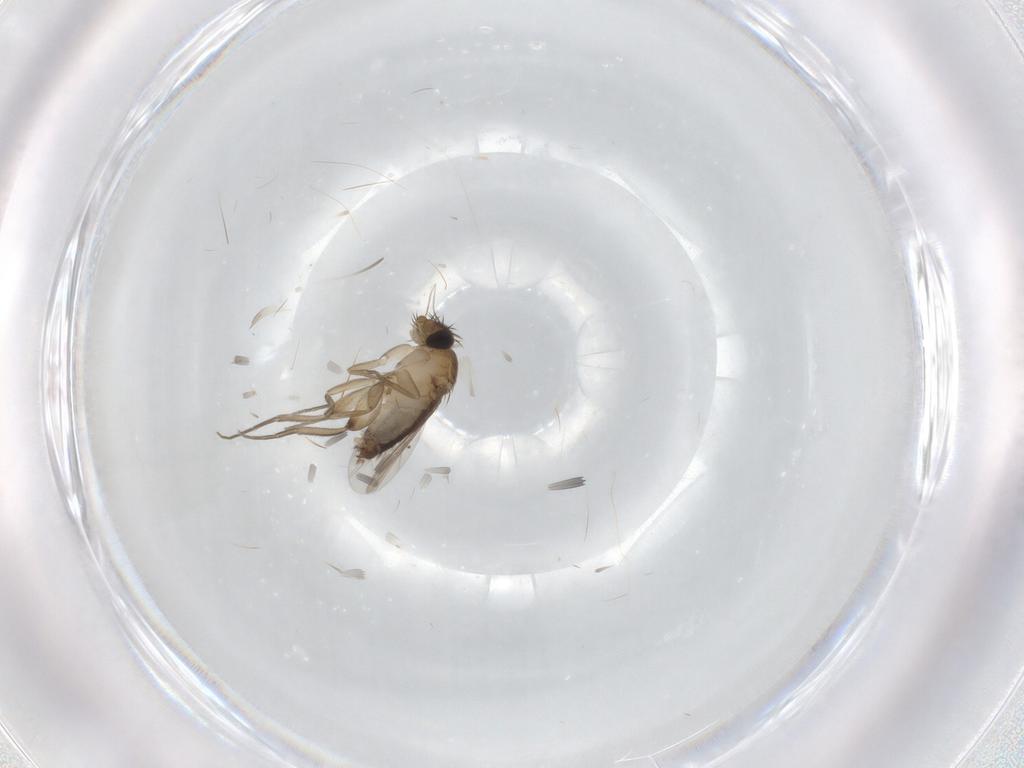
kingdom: Animalia
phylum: Arthropoda
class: Insecta
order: Diptera
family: Phoridae
